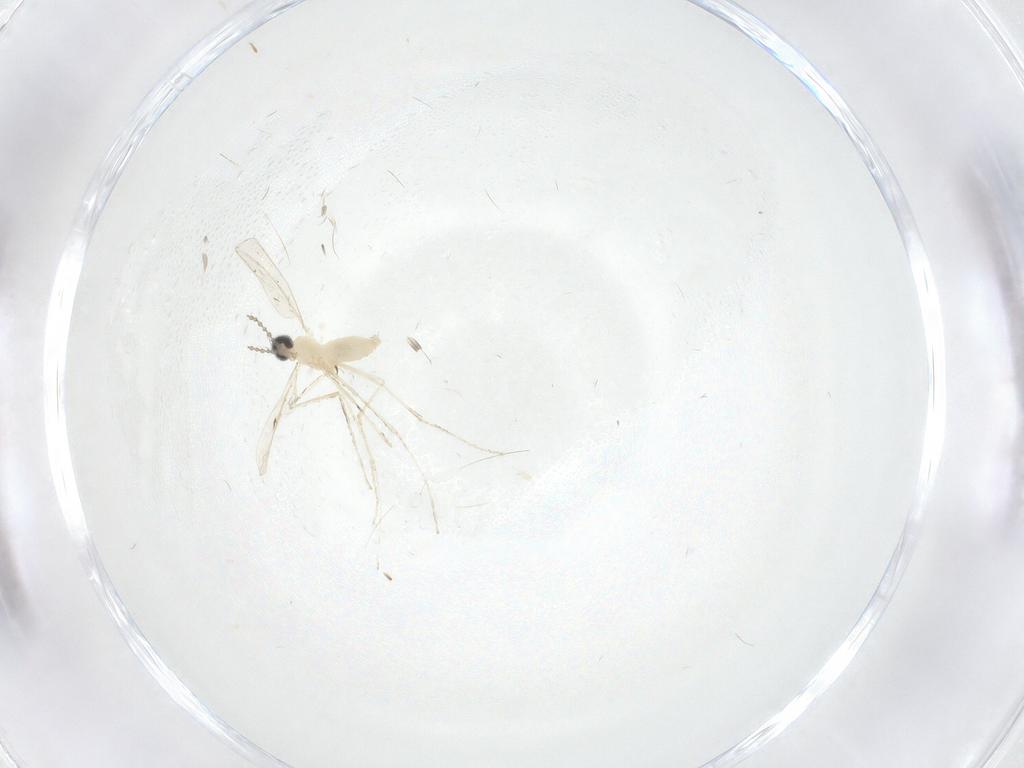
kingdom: Animalia
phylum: Arthropoda
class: Insecta
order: Diptera
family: Cecidomyiidae
